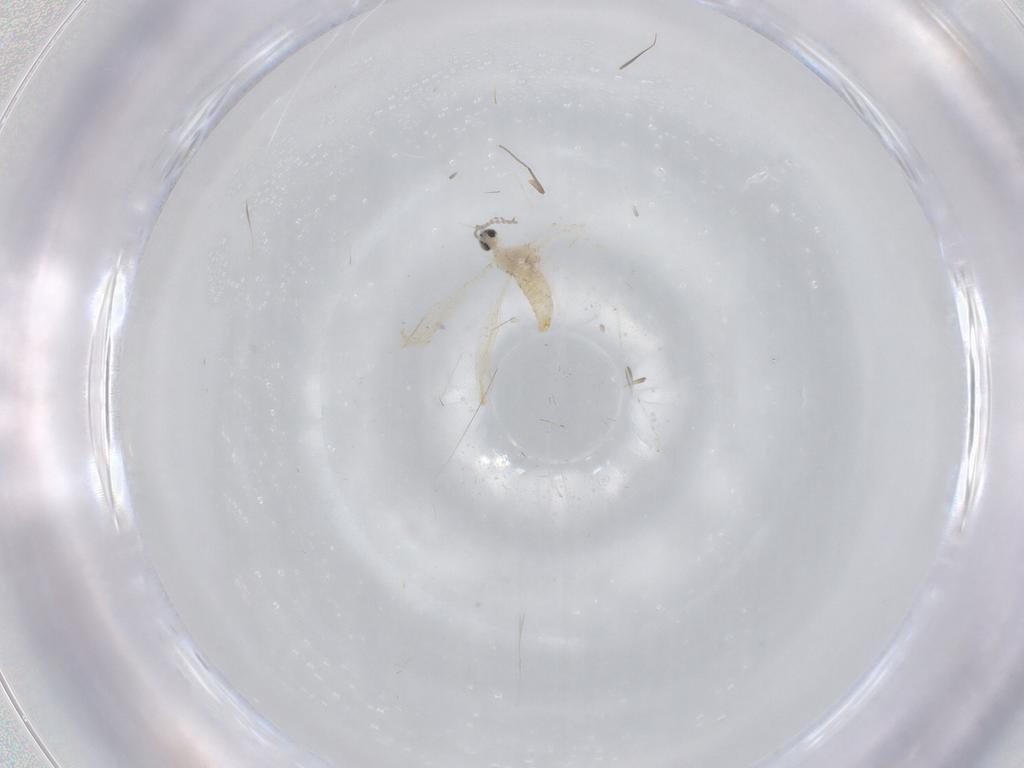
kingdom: Animalia
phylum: Arthropoda
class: Insecta
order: Diptera
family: Cecidomyiidae
